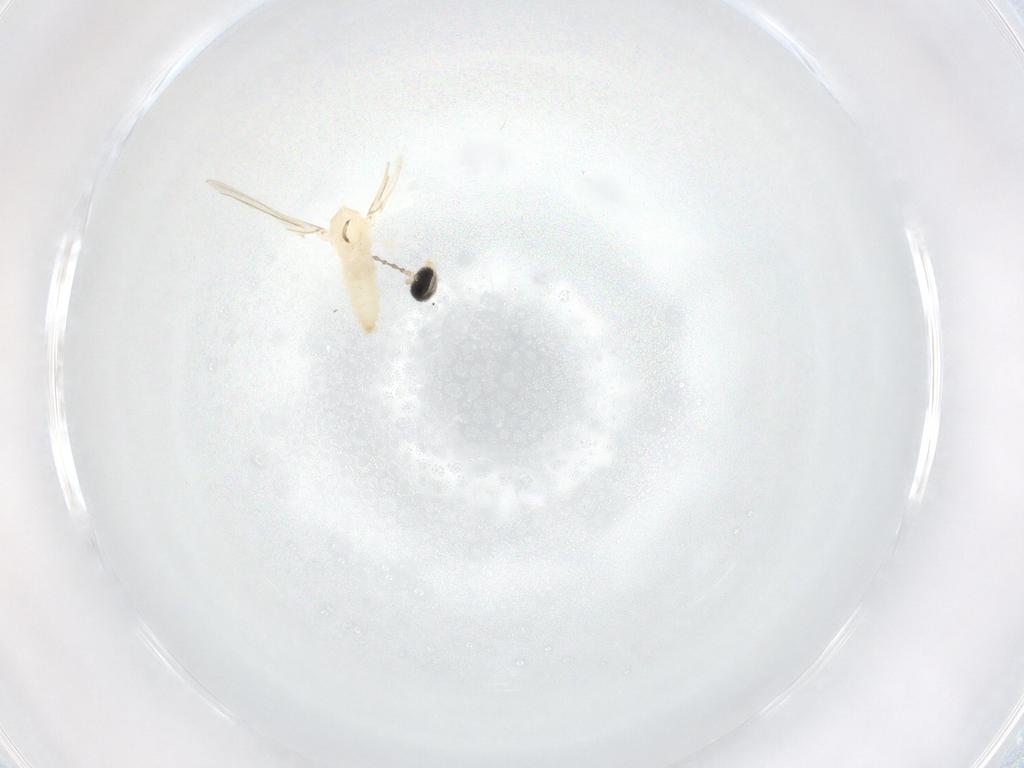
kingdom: Animalia
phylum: Arthropoda
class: Insecta
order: Diptera
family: Cecidomyiidae
